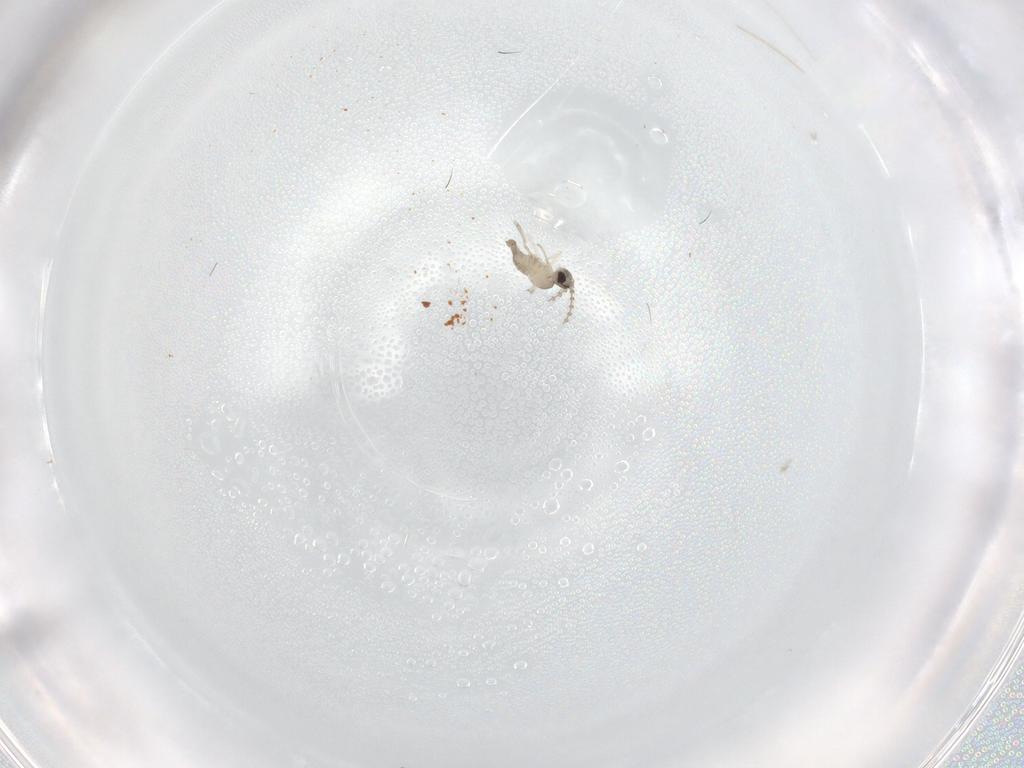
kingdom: Animalia
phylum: Arthropoda
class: Insecta
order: Diptera
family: Cecidomyiidae
